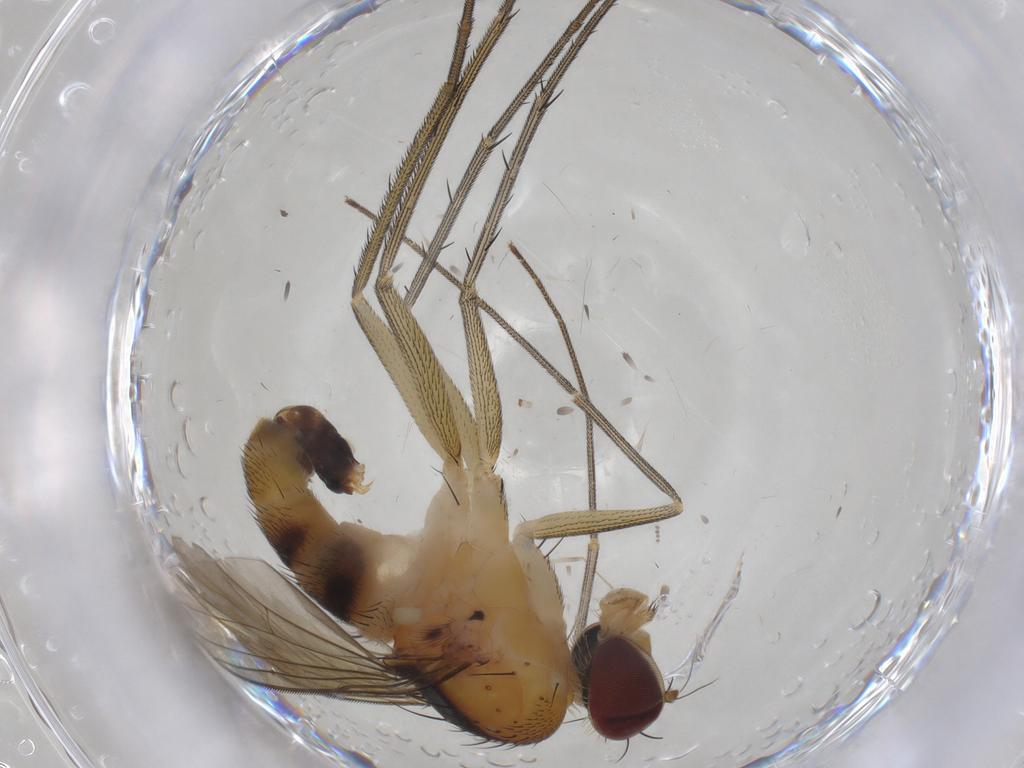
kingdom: Animalia
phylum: Arthropoda
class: Insecta
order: Diptera
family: Dolichopodidae
